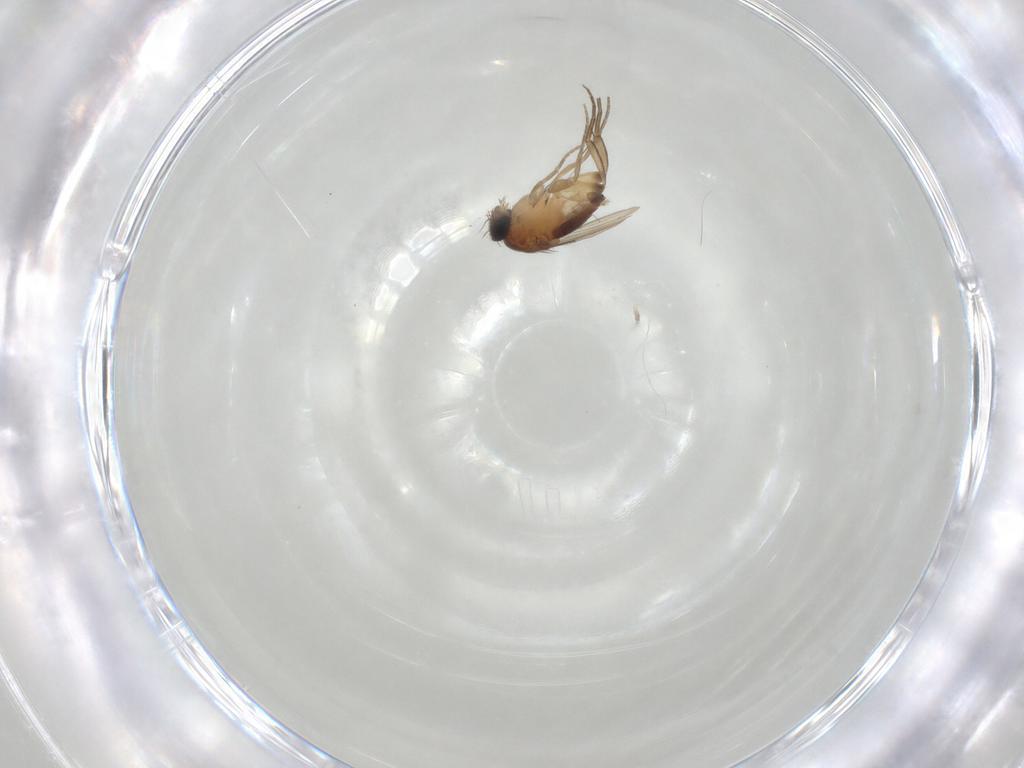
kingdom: Animalia
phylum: Arthropoda
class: Insecta
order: Diptera
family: Phoridae
